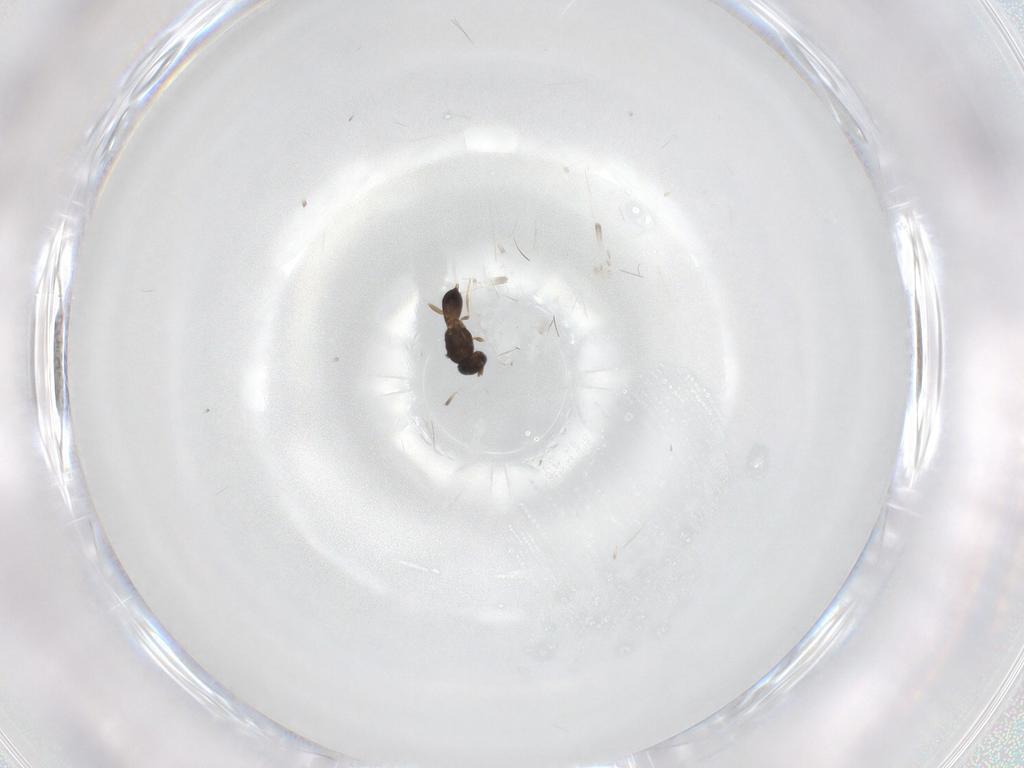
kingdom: Animalia
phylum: Arthropoda
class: Insecta
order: Hymenoptera
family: Scelionidae
